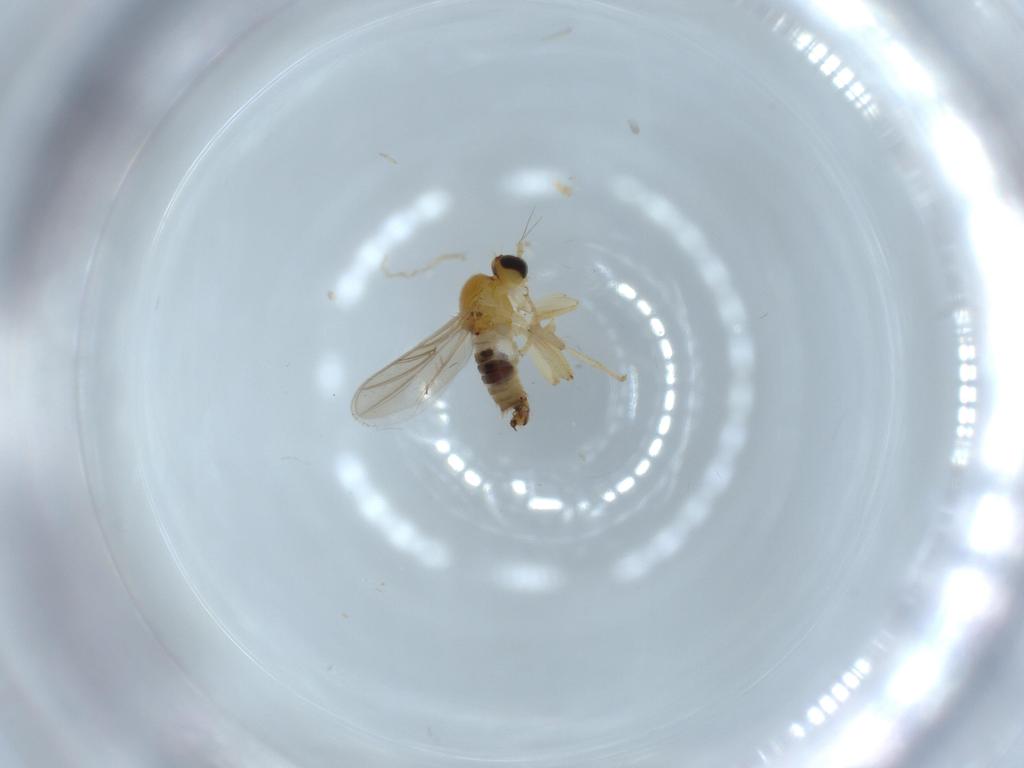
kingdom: Animalia
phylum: Arthropoda
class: Insecta
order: Diptera
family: Hybotidae
